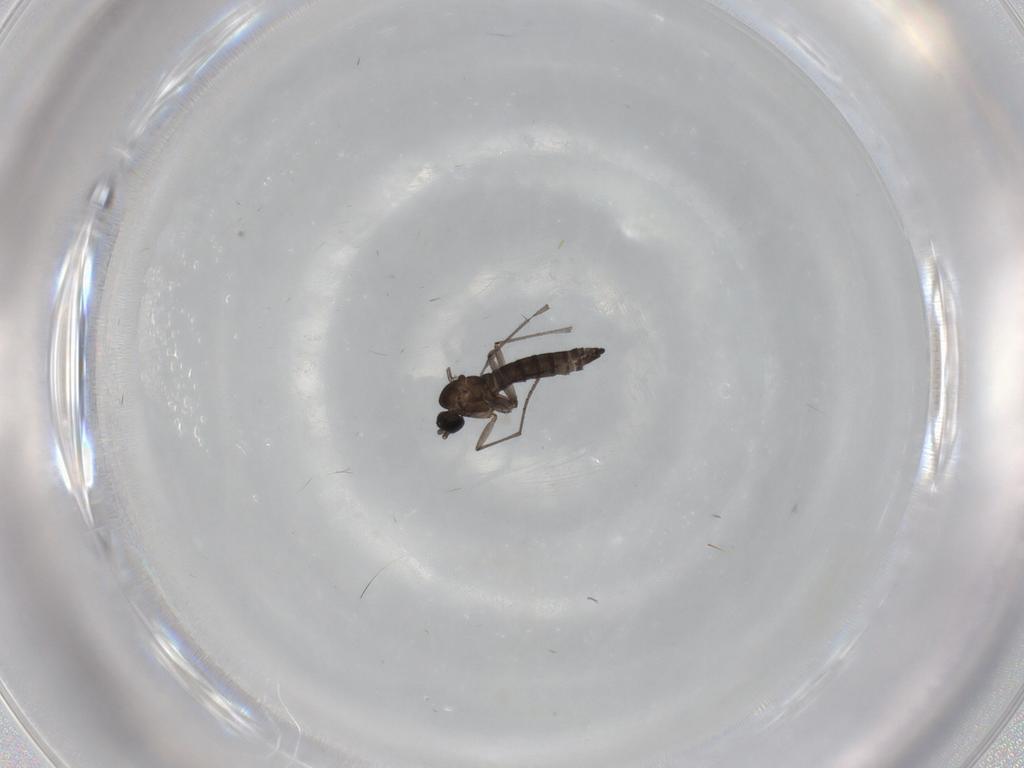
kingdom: Animalia
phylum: Arthropoda
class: Insecta
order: Diptera
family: Sciaridae
